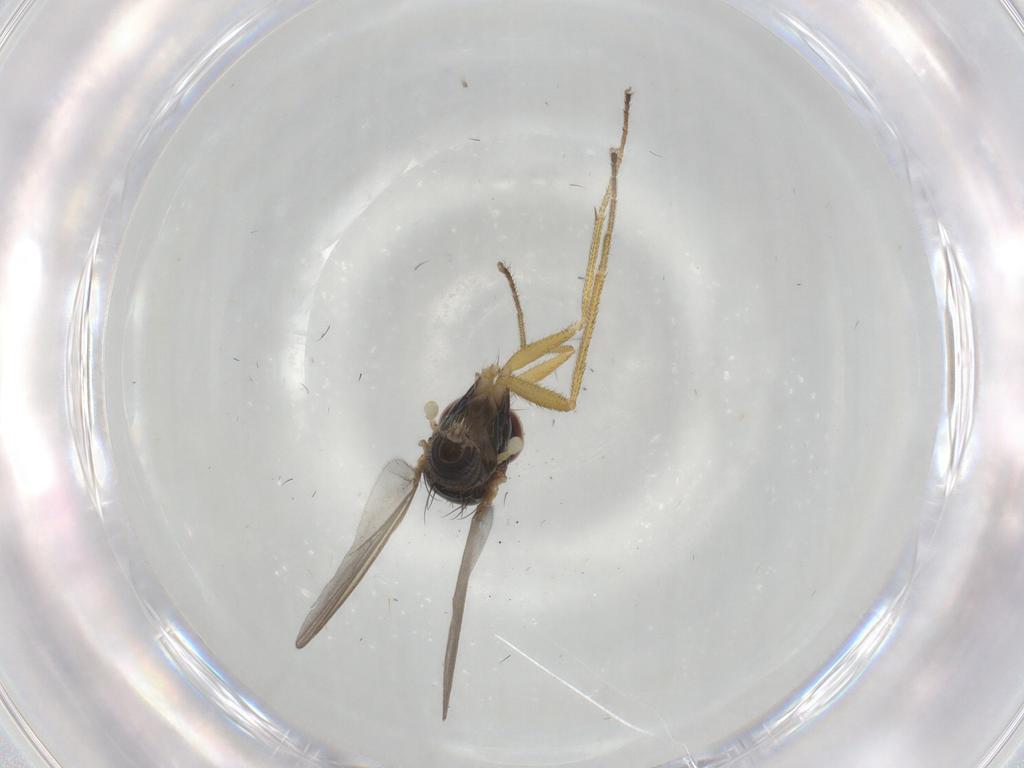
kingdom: Animalia
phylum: Arthropoda
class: Insecta
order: Diptera
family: Dolichopodidae
